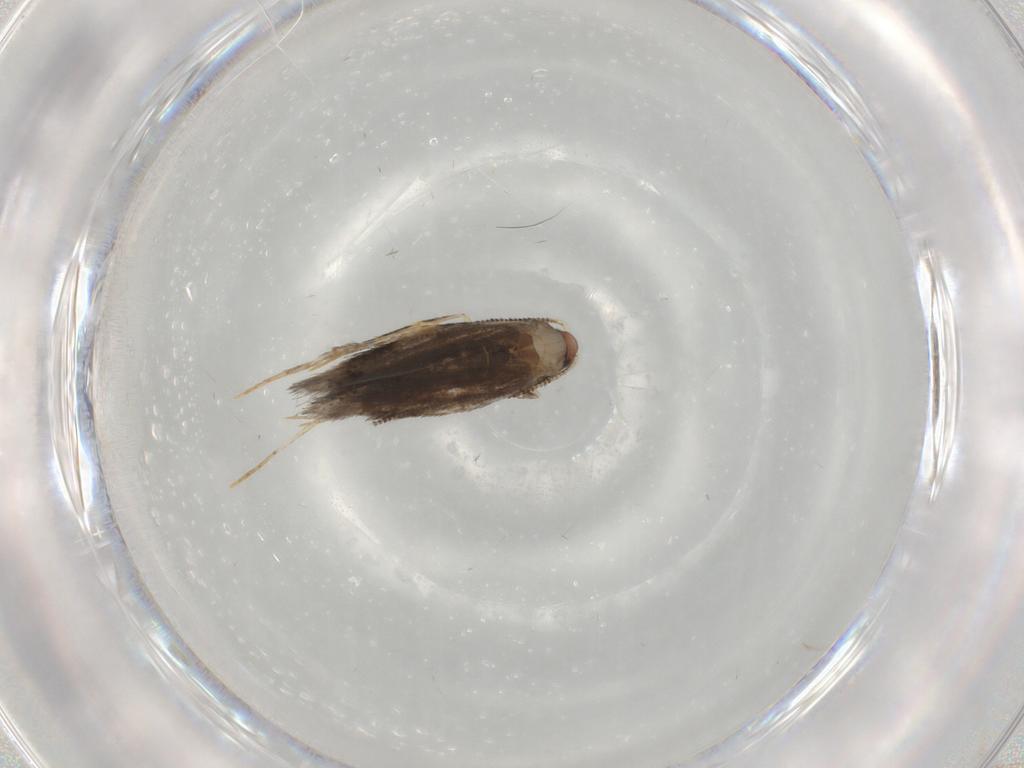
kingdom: Animalia
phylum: Arthropoda
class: Insecta
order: Lepidoptera
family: Meessiidae
